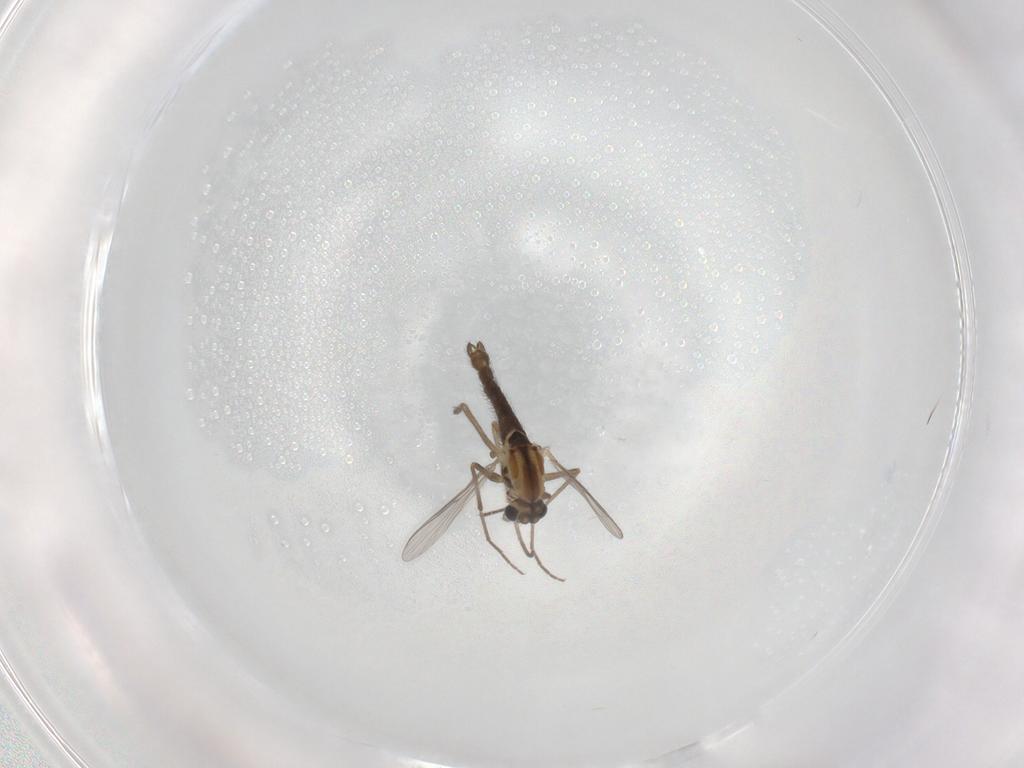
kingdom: Animalia
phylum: Arthropoda
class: Insecta
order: Diptera
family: Chironomidae
